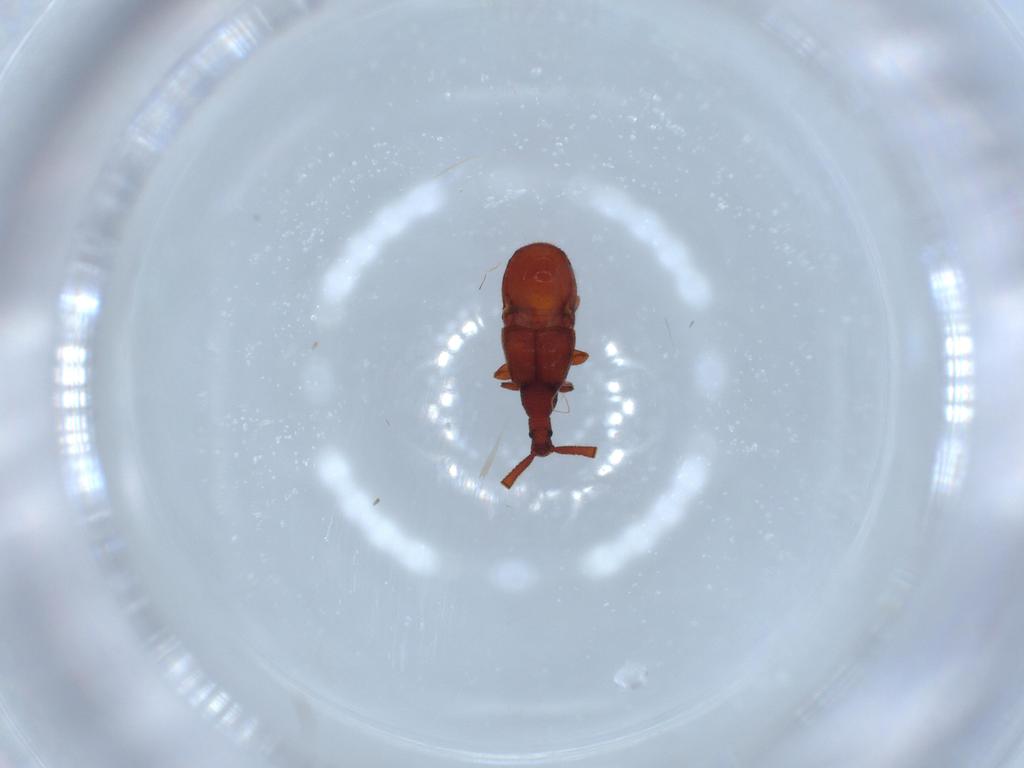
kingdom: Animalia
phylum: Arthropoda
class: Insecta
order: Coleoptera
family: Staphylinidae
